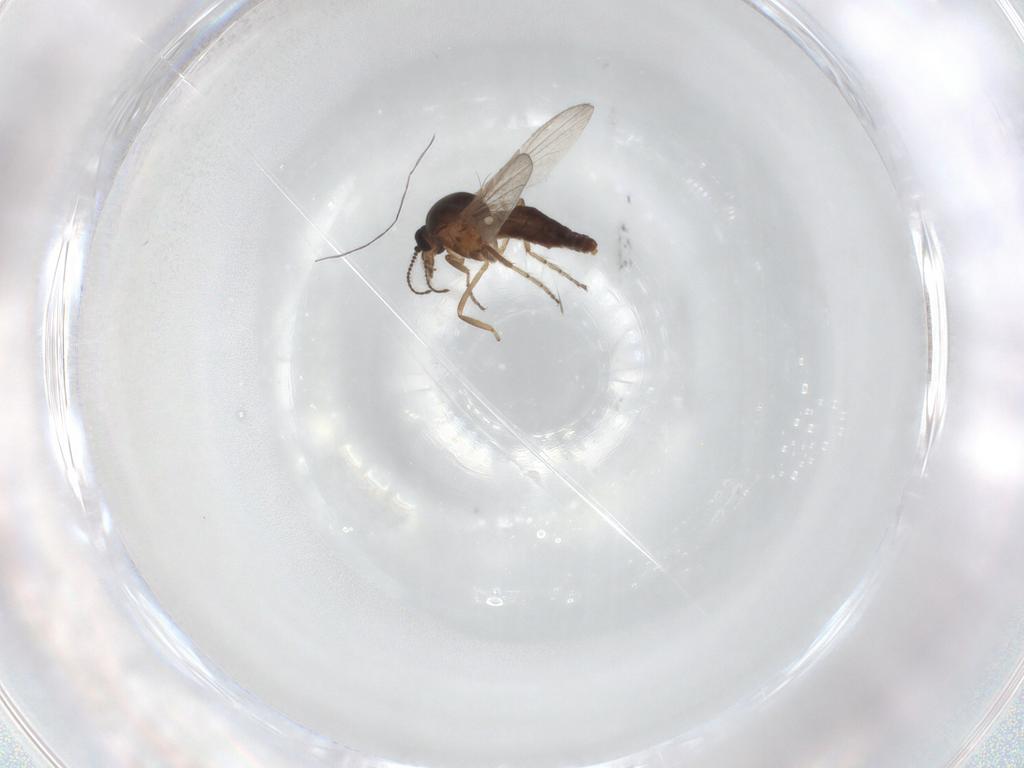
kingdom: Animalia
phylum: Arthropoda
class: Insecta
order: Diptera
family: Ceratopogonidae
